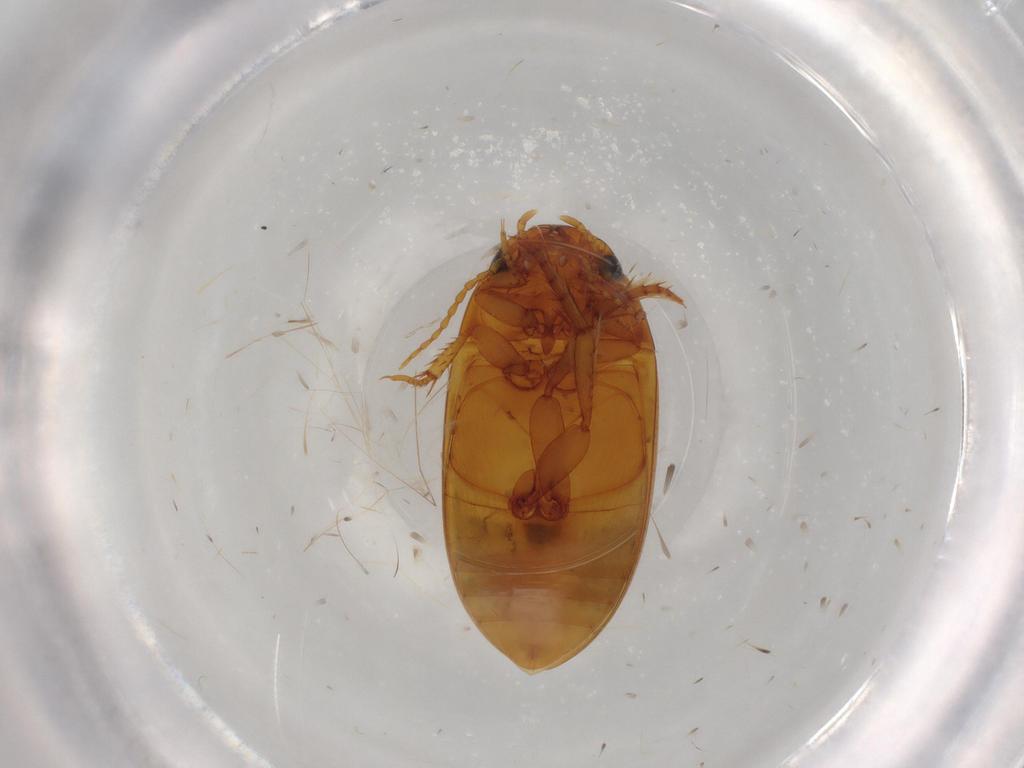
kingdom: Animalia
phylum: Arthropoda
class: Insecta
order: Coleoptera
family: Dytiscidae
